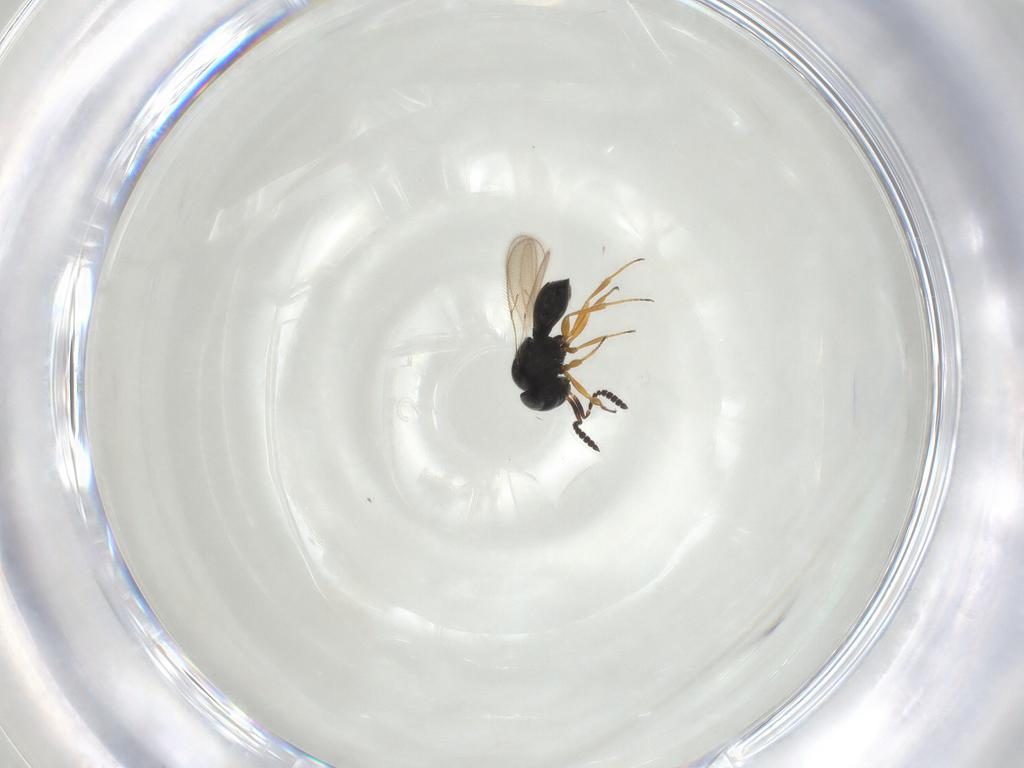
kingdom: Animalia
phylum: Arthropoda
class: Insecta
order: Hymenoptera
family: Scelionidae
